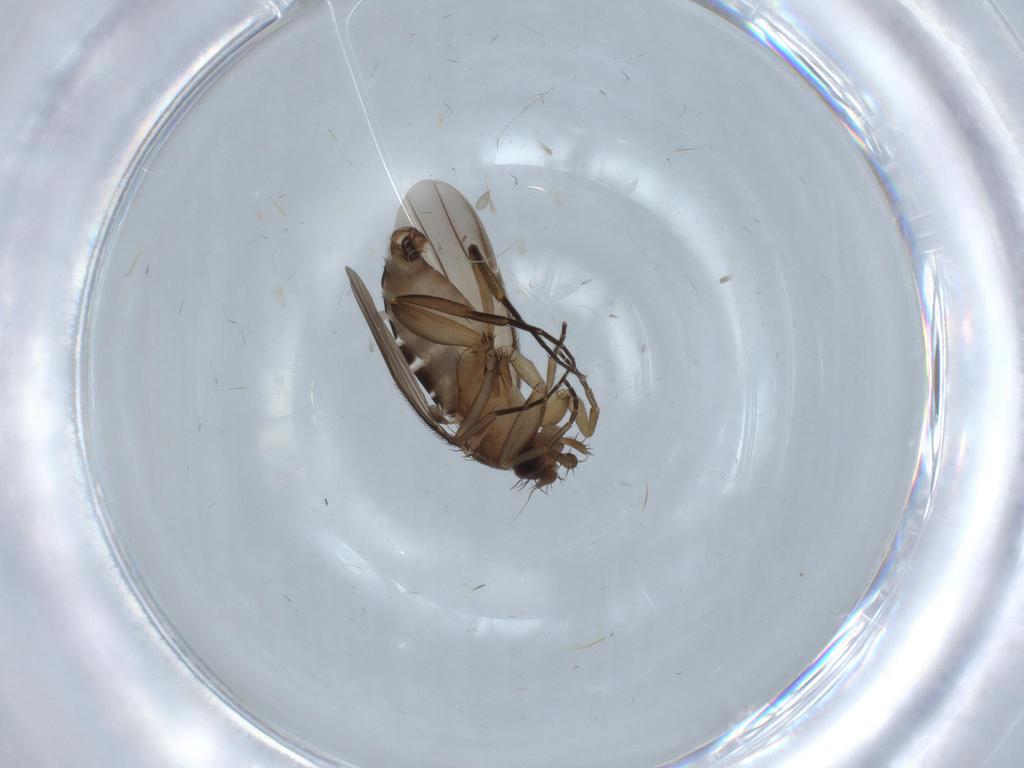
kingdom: Animalia
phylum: Arthropoda
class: Insecta
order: Diptera
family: Phoridae
